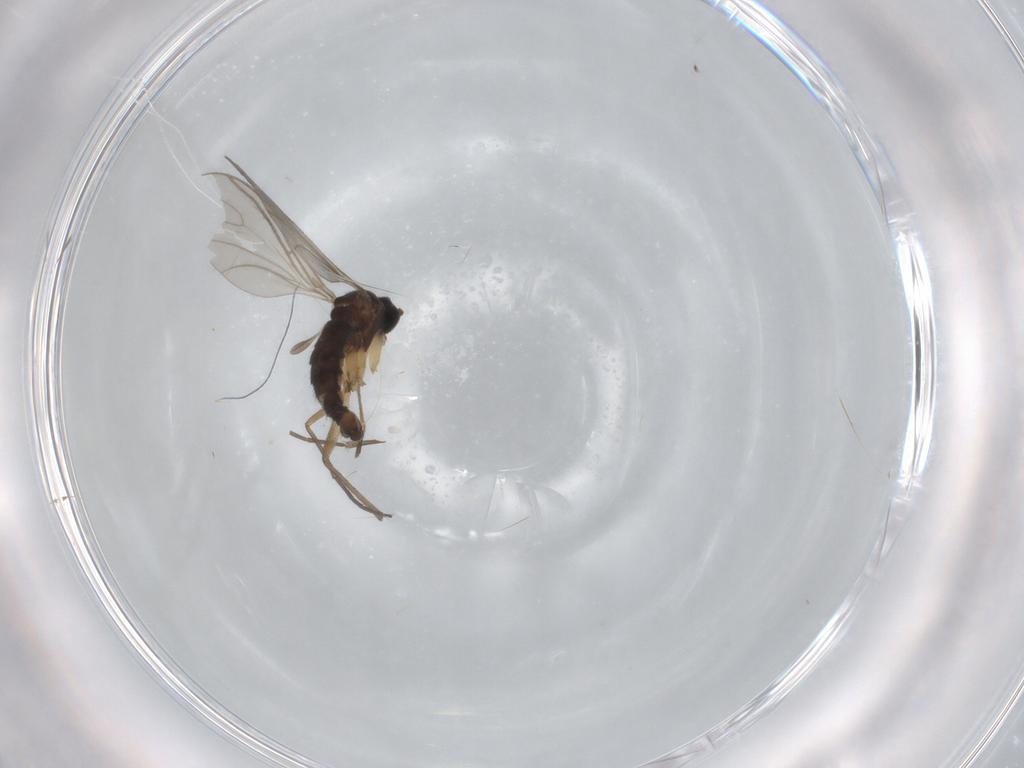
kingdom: Animalia
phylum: Arthropoda
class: Insecta
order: Diptera
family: Sciaridae
